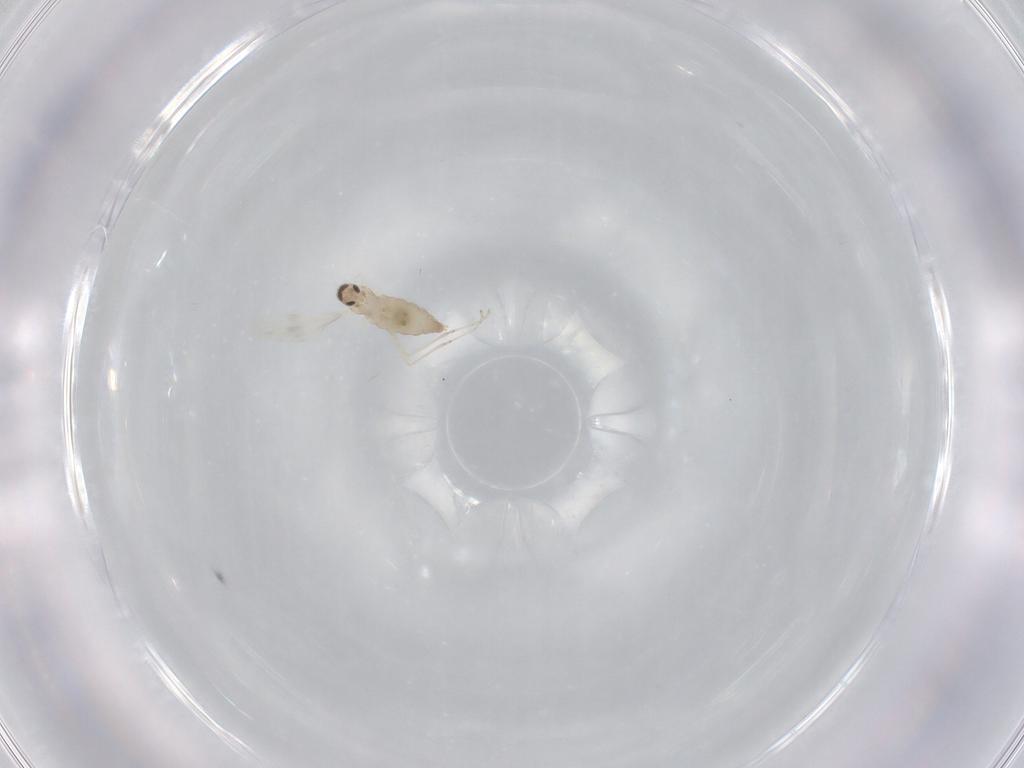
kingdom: Animalia
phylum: Arthropoda
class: Insecta
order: Diptera
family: Cecidomyiidae
